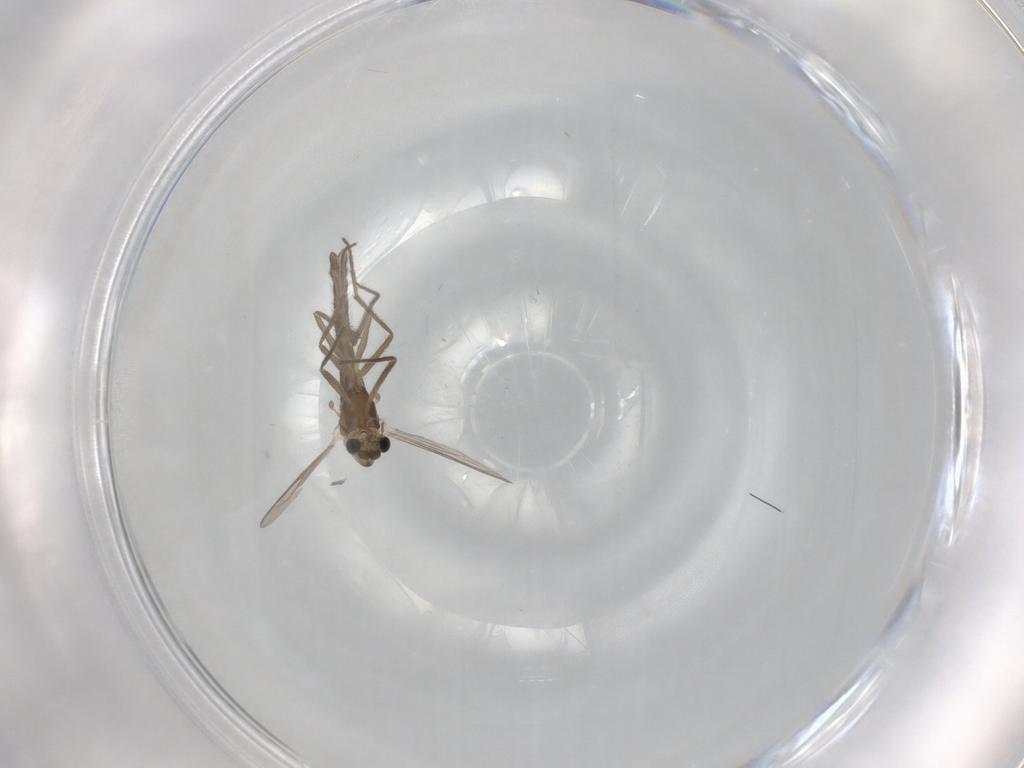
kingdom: Animalia
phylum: Arthropoda
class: Insecta
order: Diptera
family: Chironomidae
